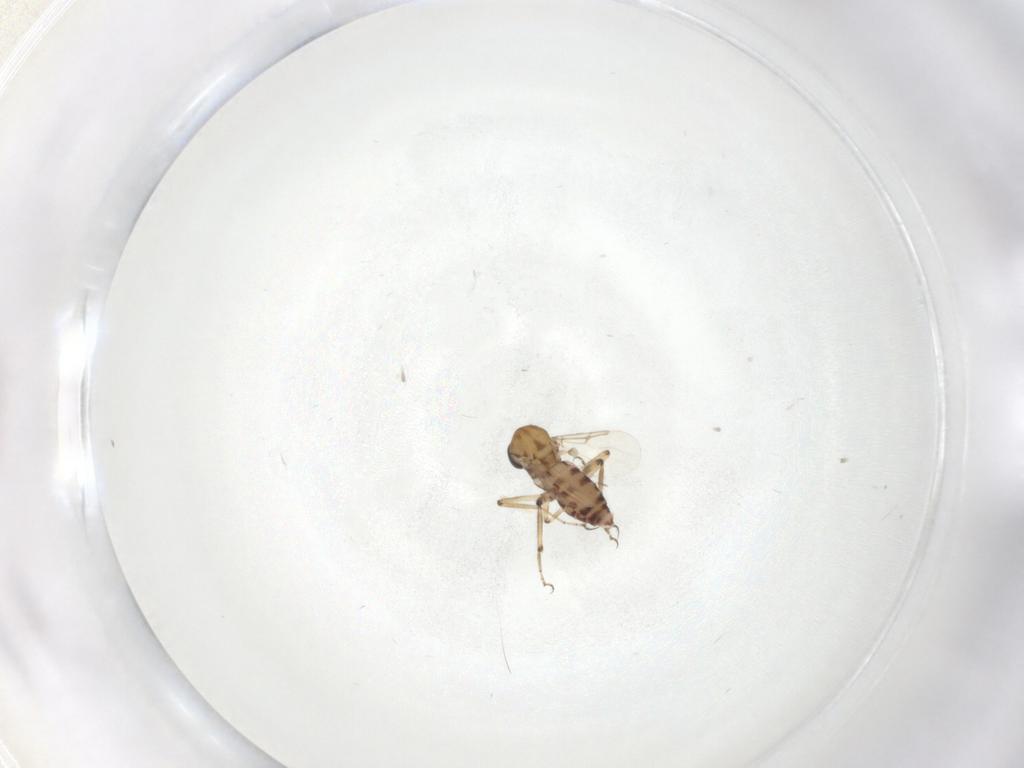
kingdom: Animalia
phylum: Arthropoda
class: Insecta
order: Diptera
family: Ceratopogonidae
